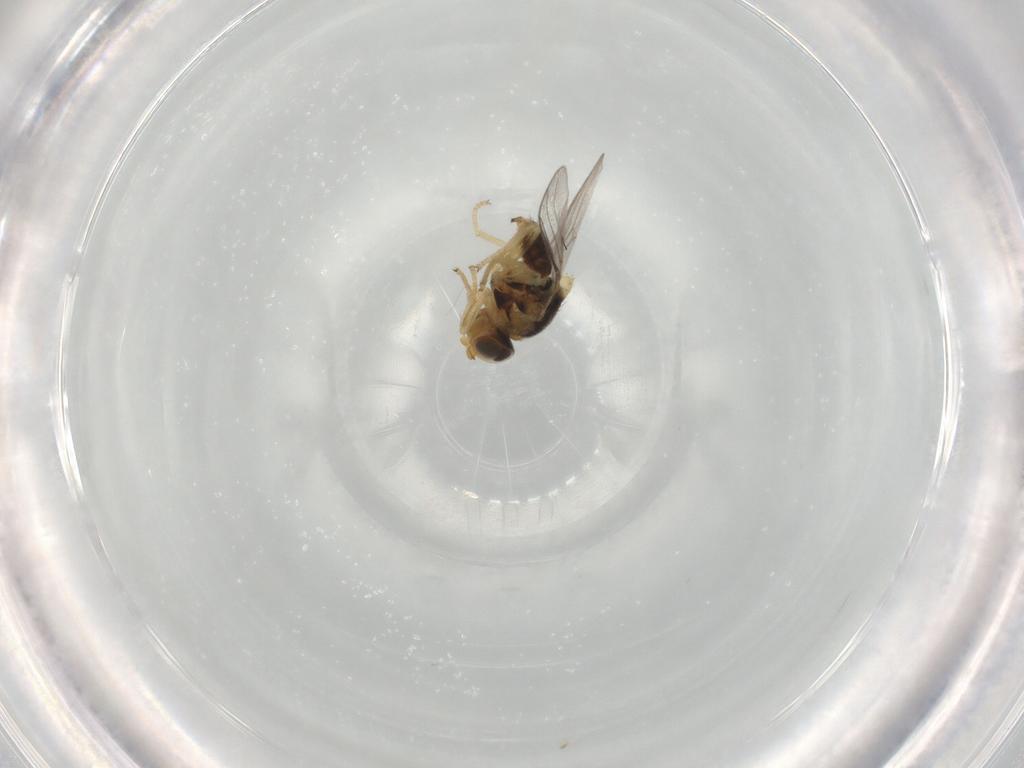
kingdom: Animalia
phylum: Arthropoda
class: Insecta
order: Diptera
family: Chloropidae
